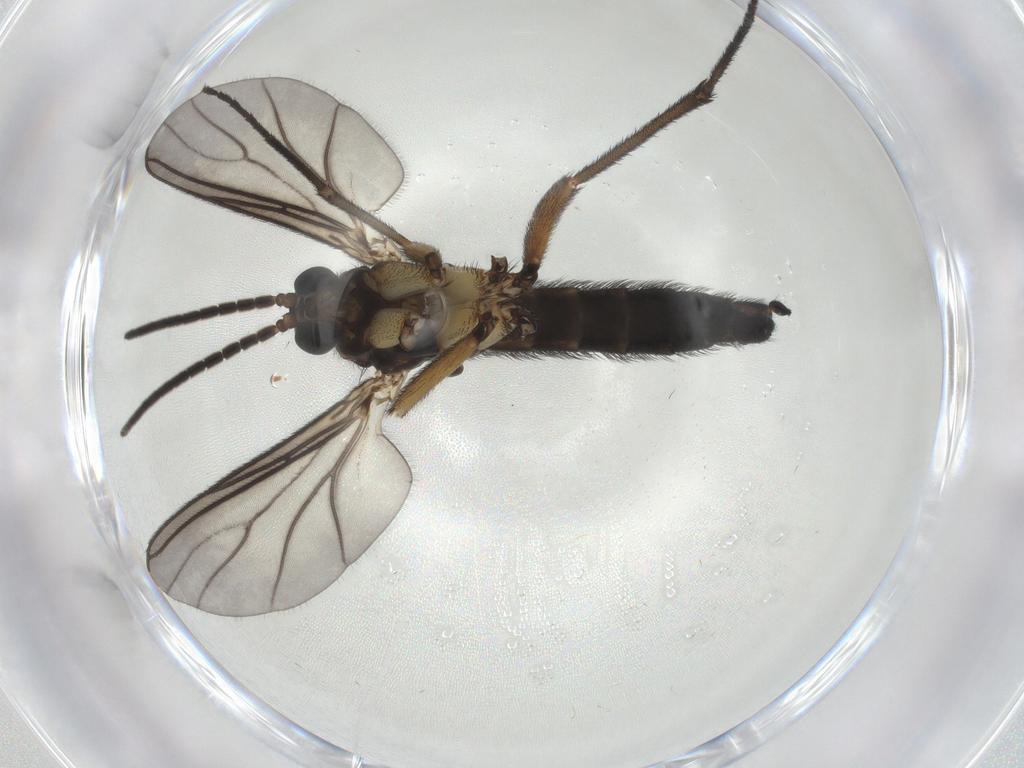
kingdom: Animalia
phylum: Arthropoda
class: Insecta
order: Diptera
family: Sciaridae
